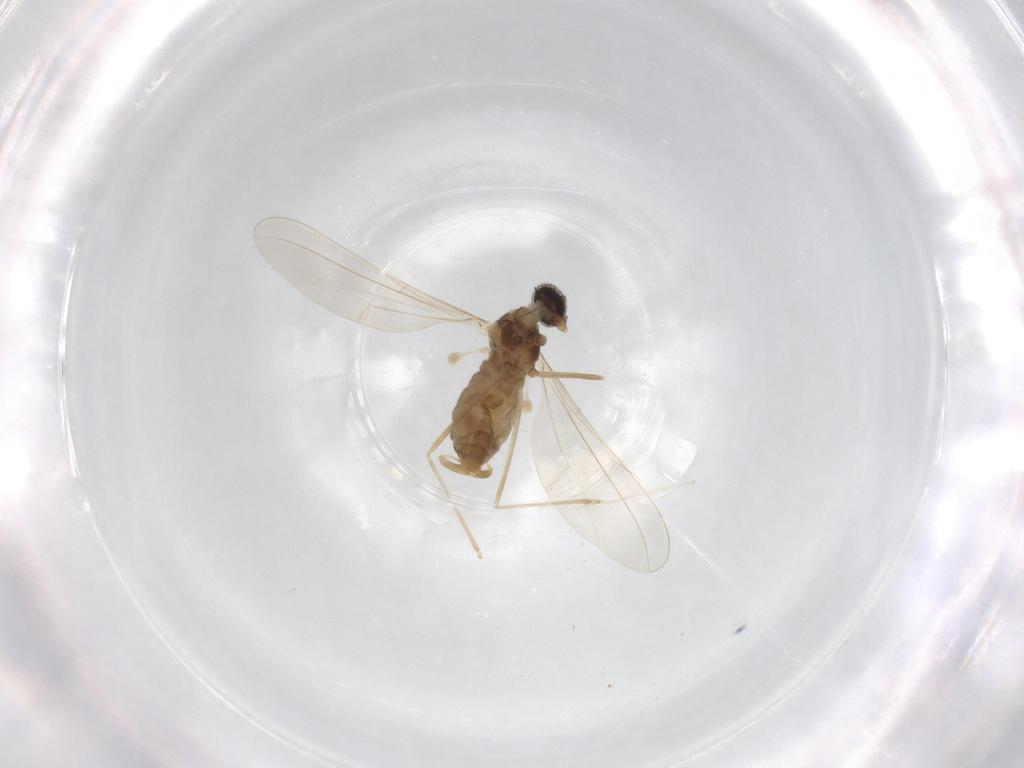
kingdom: Animalia
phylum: Arthropoda
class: Insecta
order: Diptera
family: Cecidomyiidae
